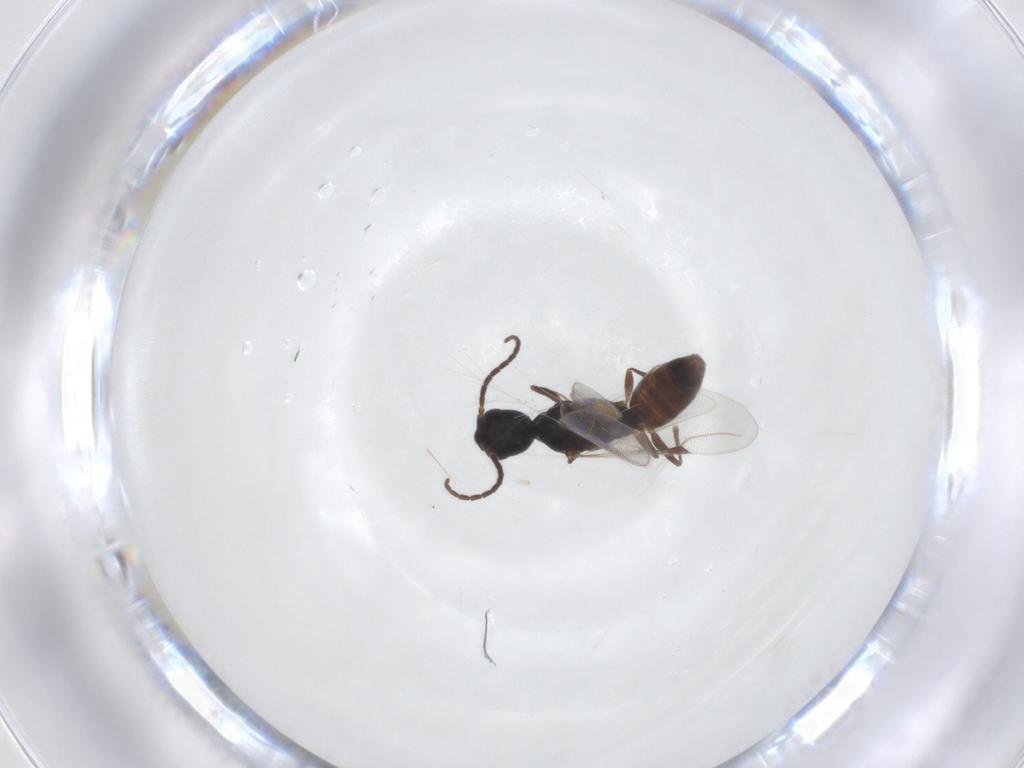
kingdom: Animalia
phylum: Arthropoda
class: Insecta
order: Hymenoptera
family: Bethylidae
